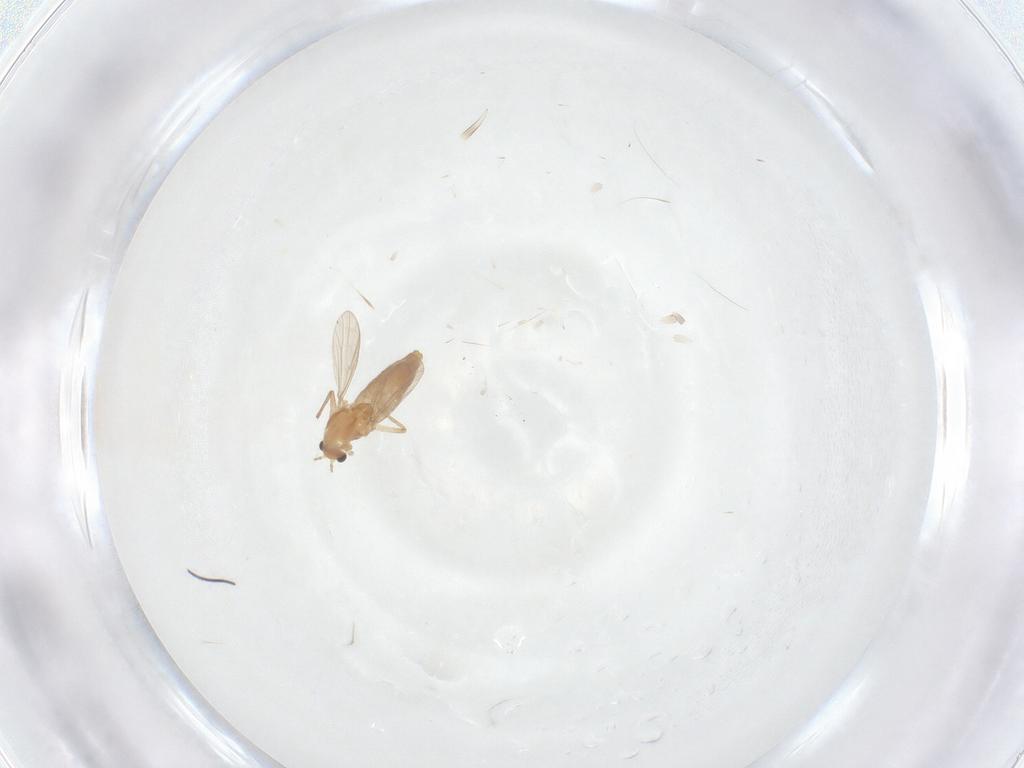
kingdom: Animalia
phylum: Arthropoda
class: Insecta
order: Diptera
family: Chironomidae
